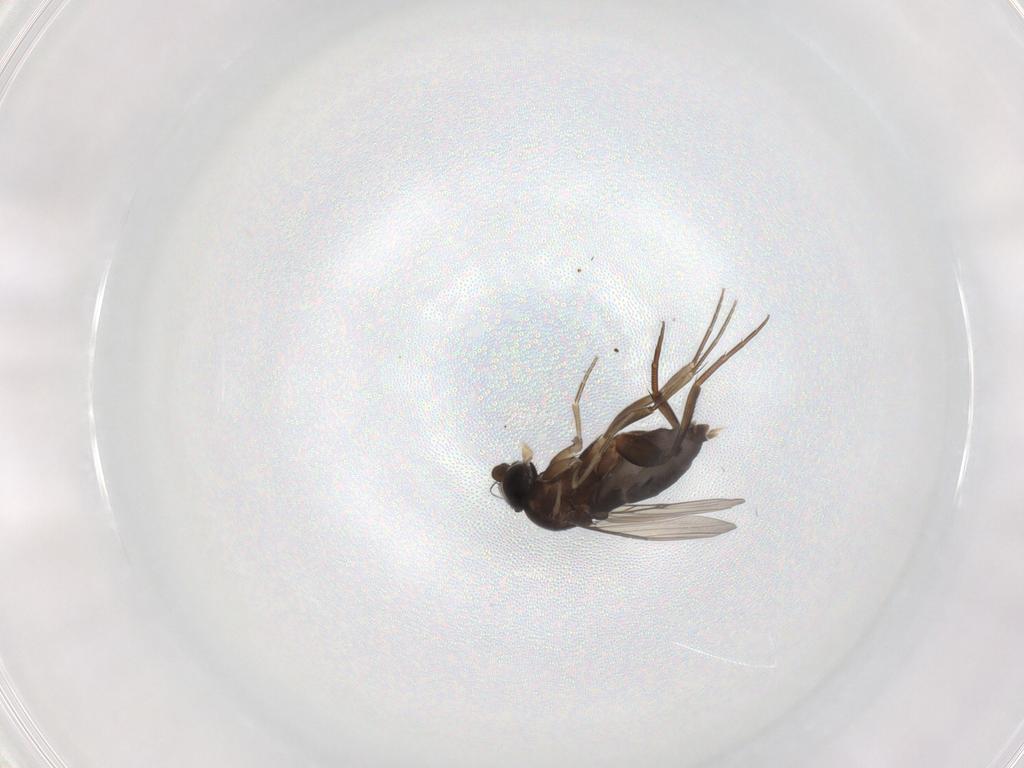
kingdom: Animalia
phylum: Arthropoda
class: Insecta
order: Diptera
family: Phoridae
